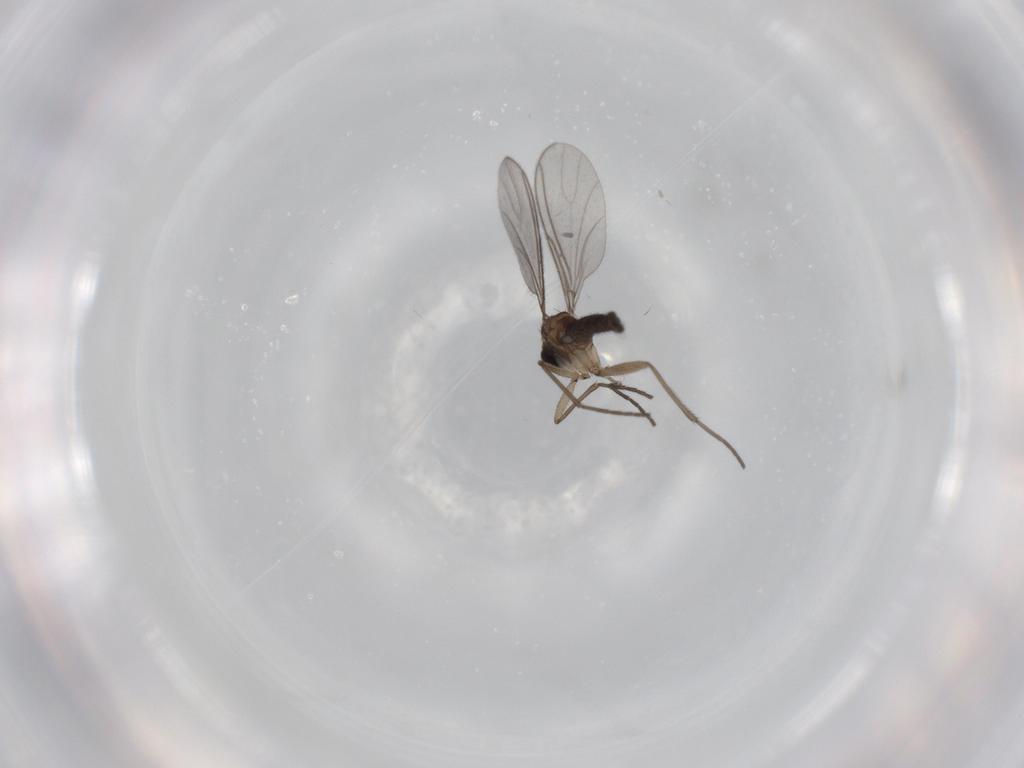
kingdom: Animalia
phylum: Arthropoda
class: Insecta
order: Diptera
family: Sciaridae
